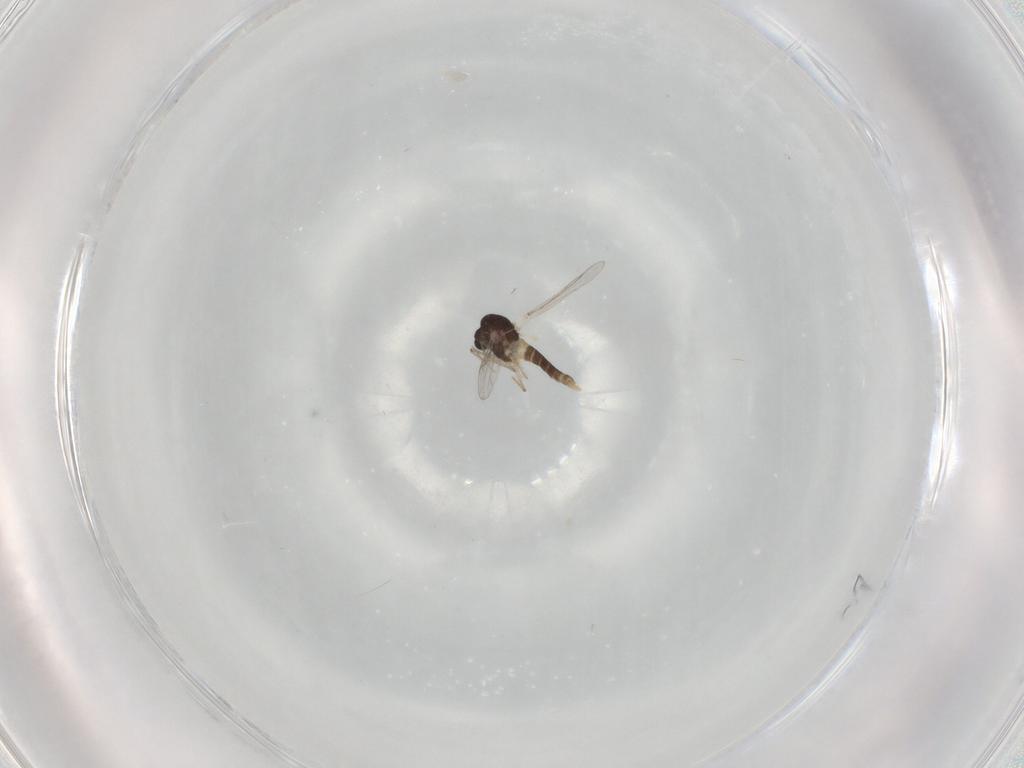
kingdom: Animalia
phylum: Arthropoda
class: Insecta
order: Diptera
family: Chironomidae
